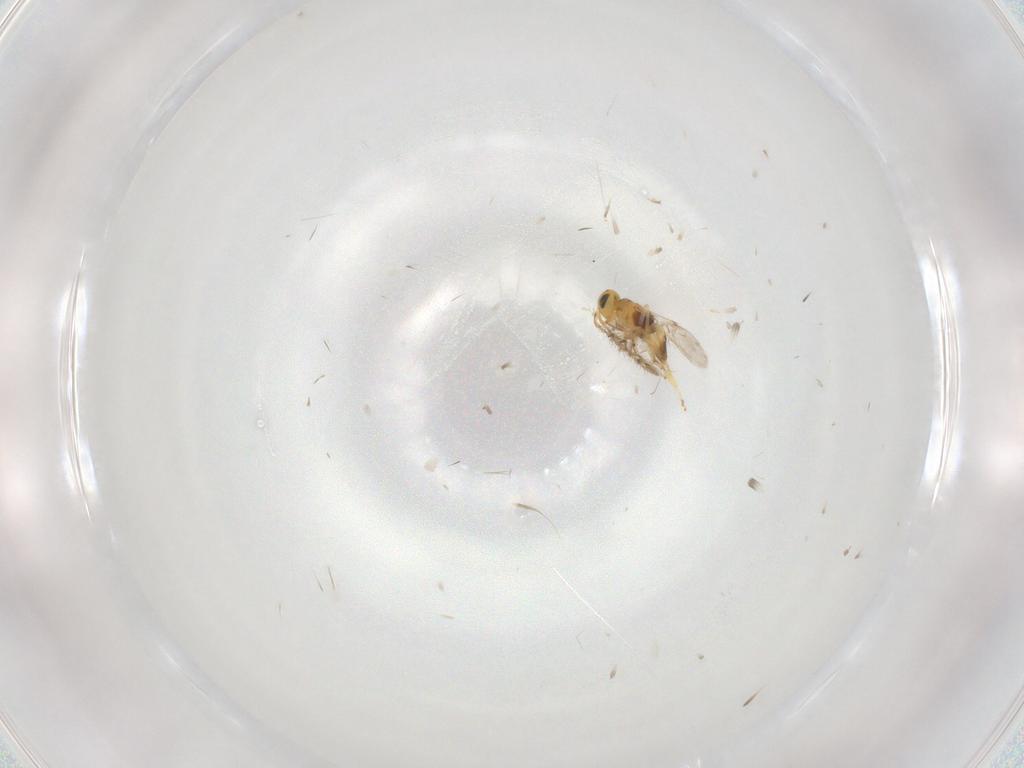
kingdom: Animalia
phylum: Arthropoda
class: Insecta
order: Hymenoptera
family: Encyrtidae
